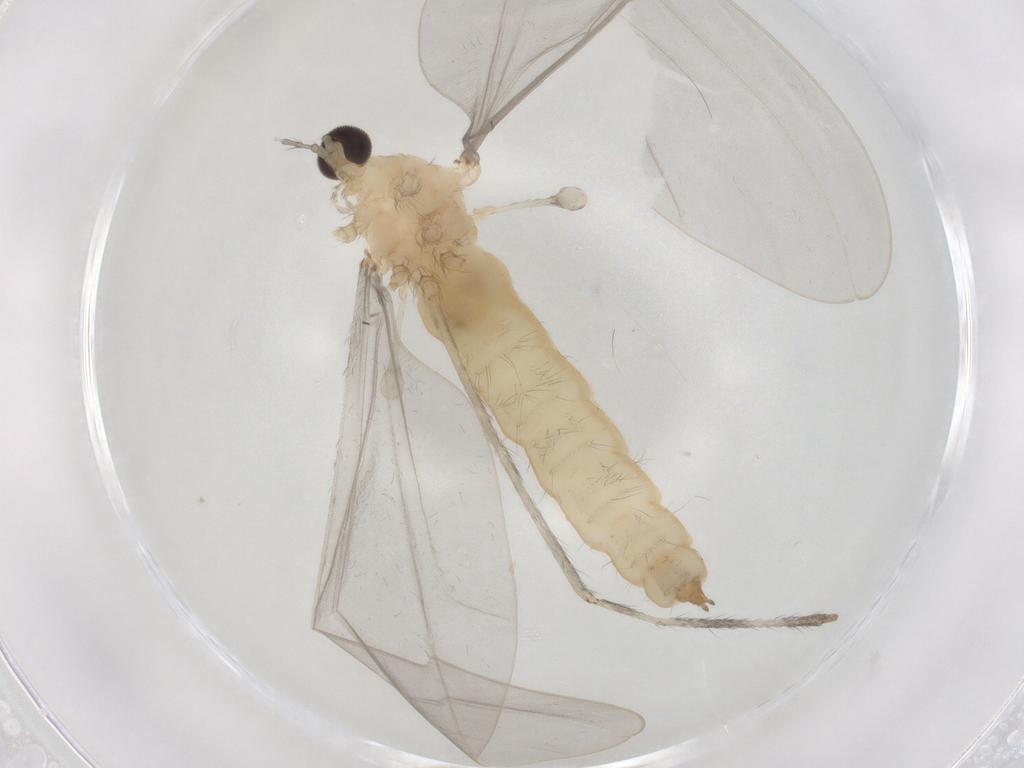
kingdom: Animalia
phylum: Arthropoda
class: Insecta
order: Diptera
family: Cecidomyiidae
